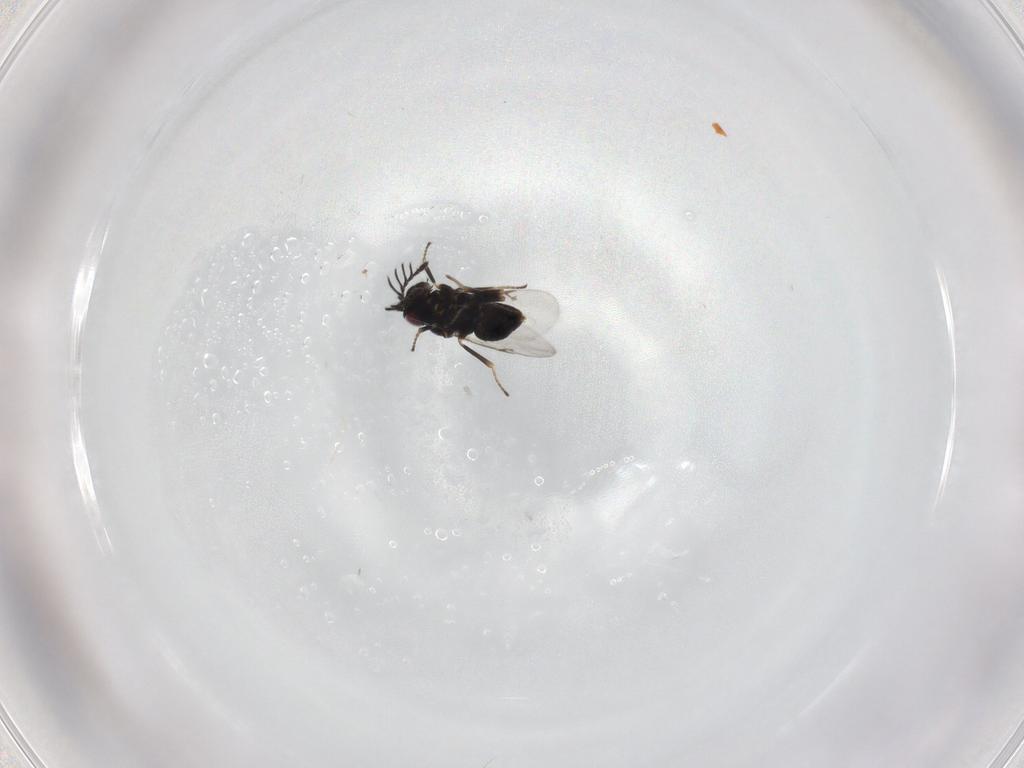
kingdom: Animalia
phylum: Arthropoda
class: Insecta
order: Hymenoptera
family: Encyrtidae
